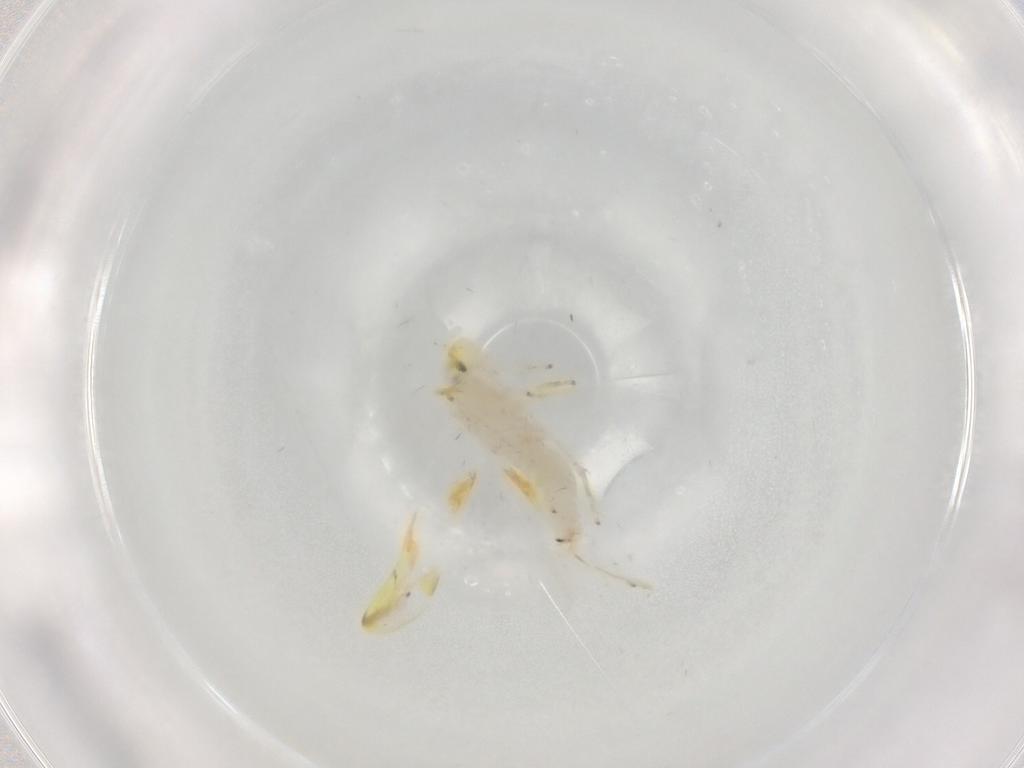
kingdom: Animalia
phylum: Arthropoda
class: Insecta
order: Hemiptera
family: Cicadellidae
